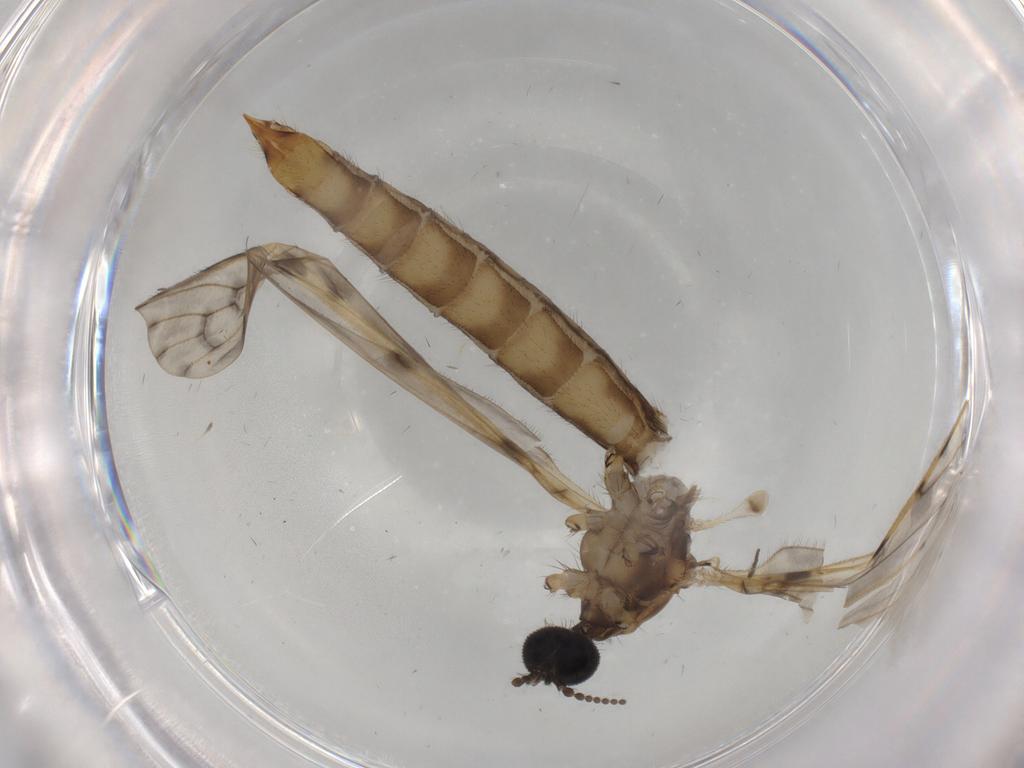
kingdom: Animalia
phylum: Arthropoda
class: Insecta
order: Diptera
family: Limoniidae
